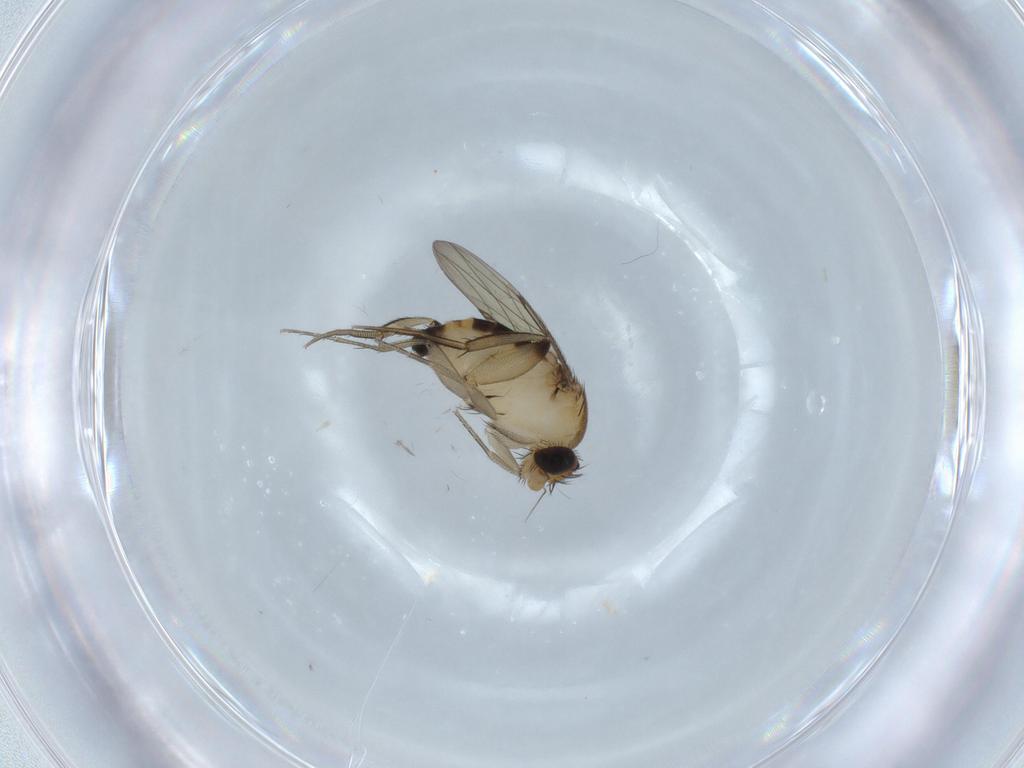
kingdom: Animalia
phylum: Arthropoda
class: Insecta
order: Diptera
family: Phoridae
